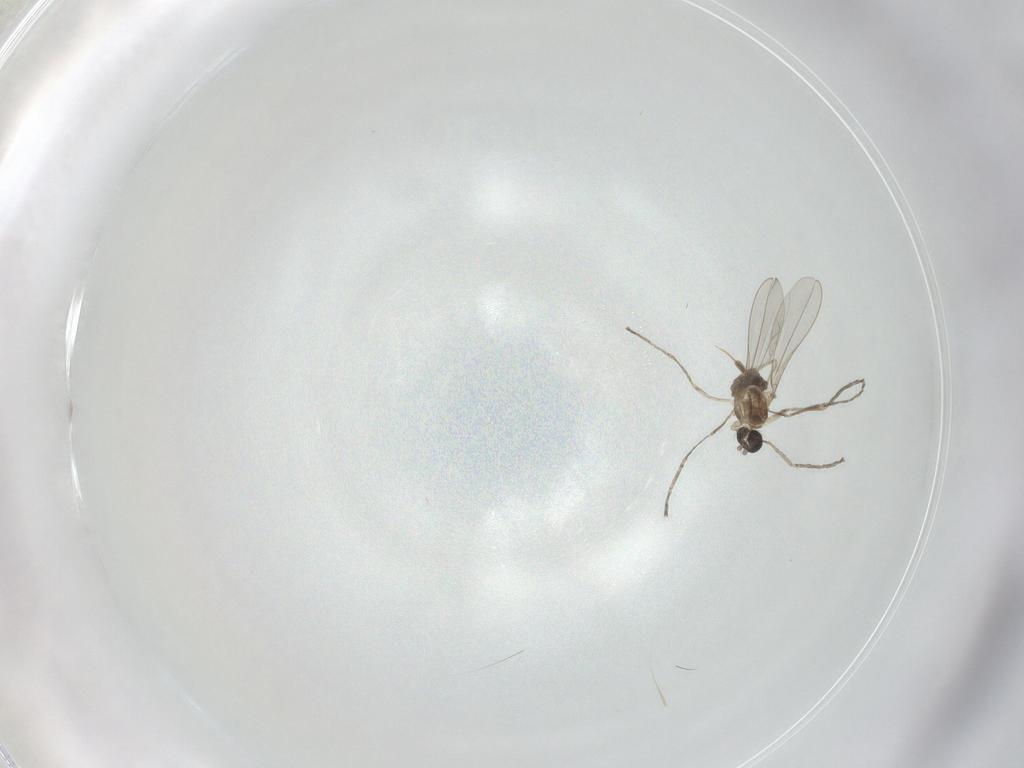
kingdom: Animalia
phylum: Arthropoda
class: Insecta
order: Diptera
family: Cecidomyiidae
